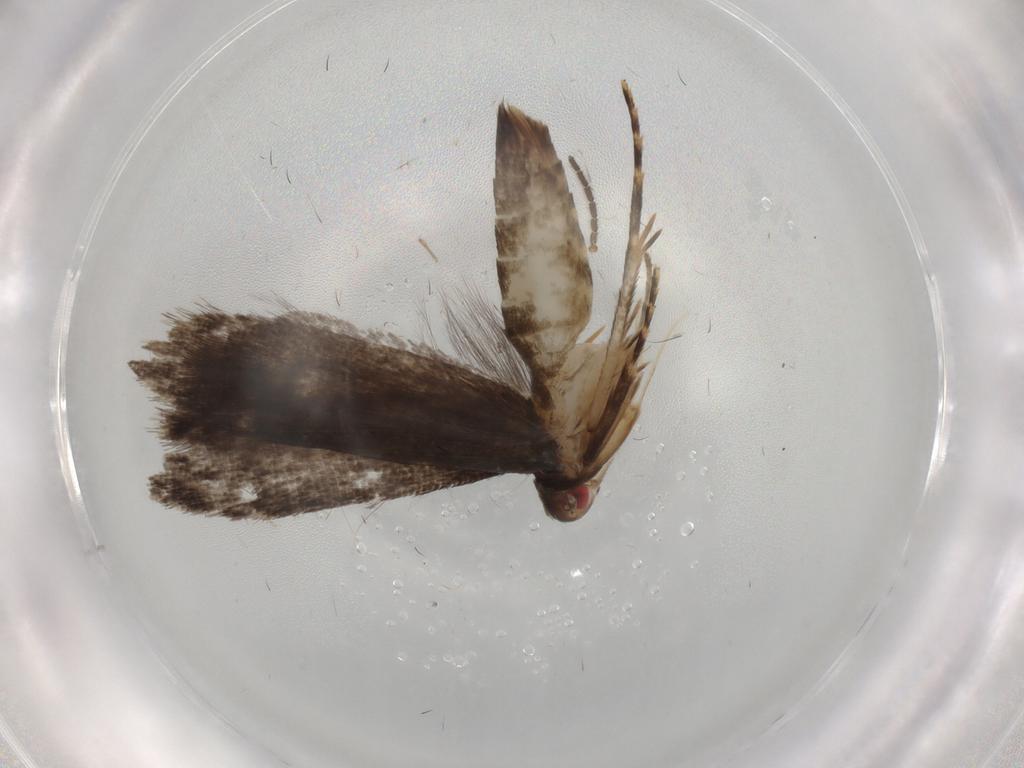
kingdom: Animalia
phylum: Arthropoda
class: Insecta
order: Lepidoptera
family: Gelechiidae
